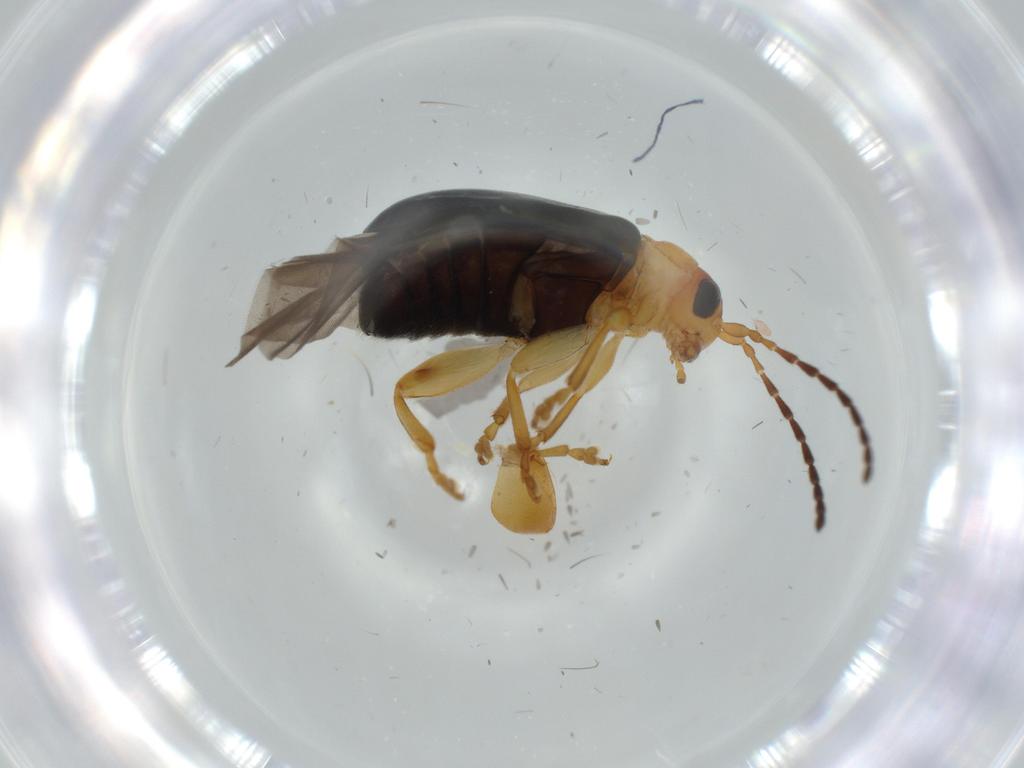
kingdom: Animalia
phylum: Arthropoda
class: Insecta
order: Coleoptera
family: Chrysomelidae
